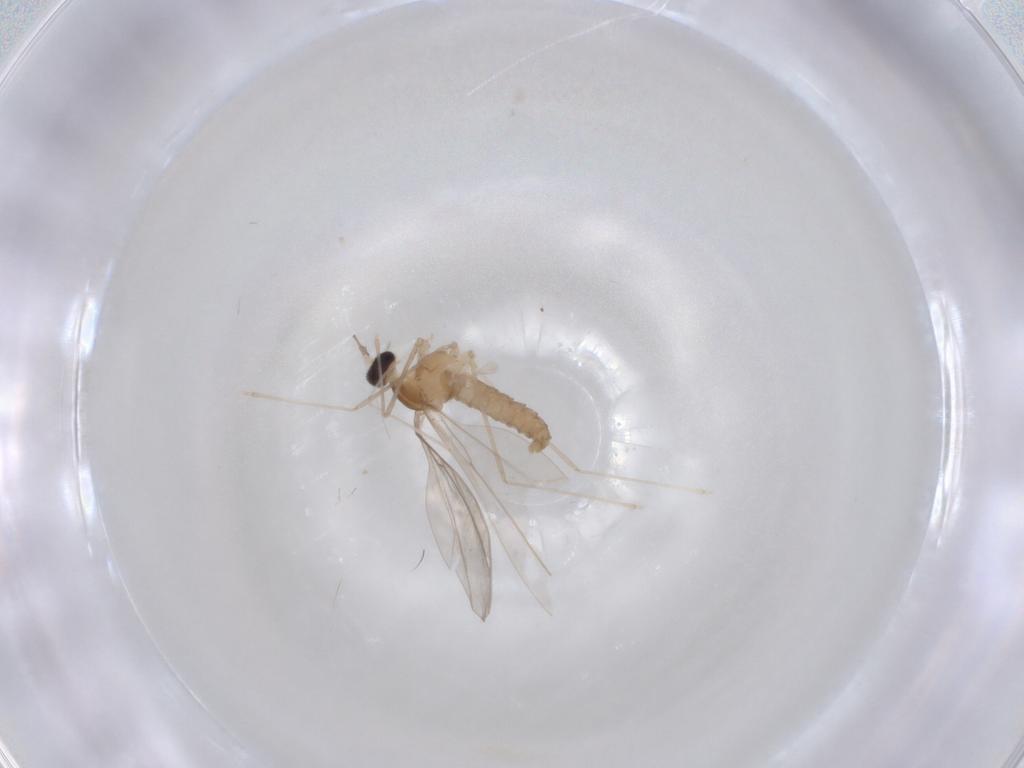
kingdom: Animalia
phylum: Arthropoda
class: Insecta
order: Diptera
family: Cecidomyiidae
